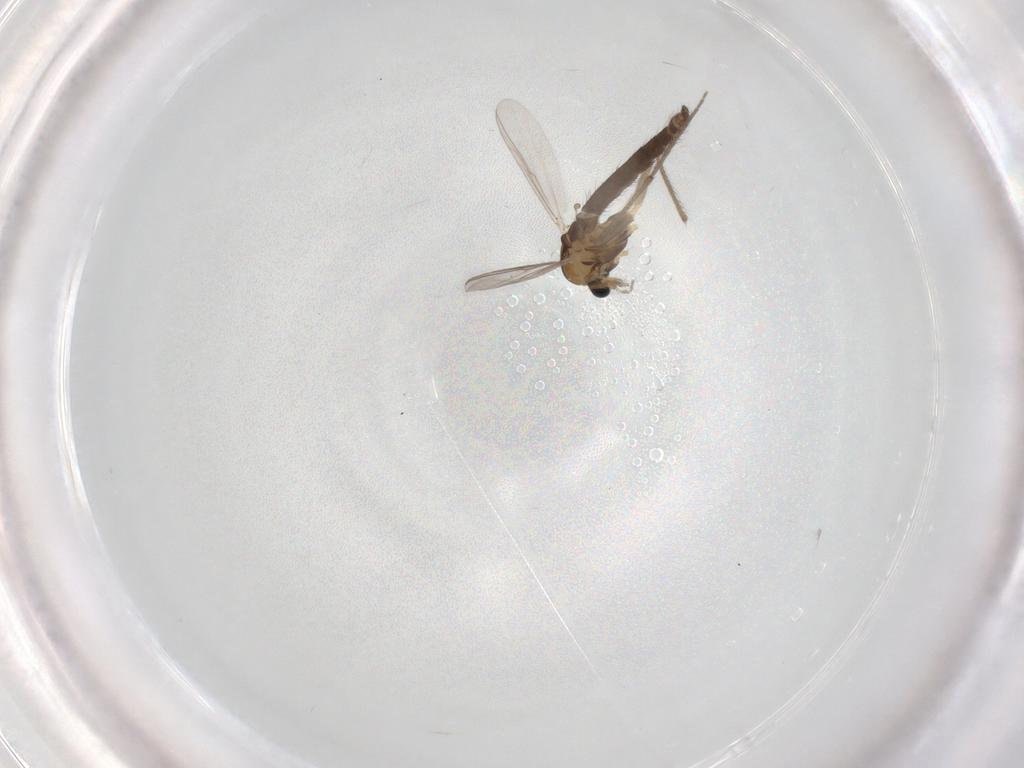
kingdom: Animalia
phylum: Arthropoda
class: Insecta
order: Diptera
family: Chironomidae
